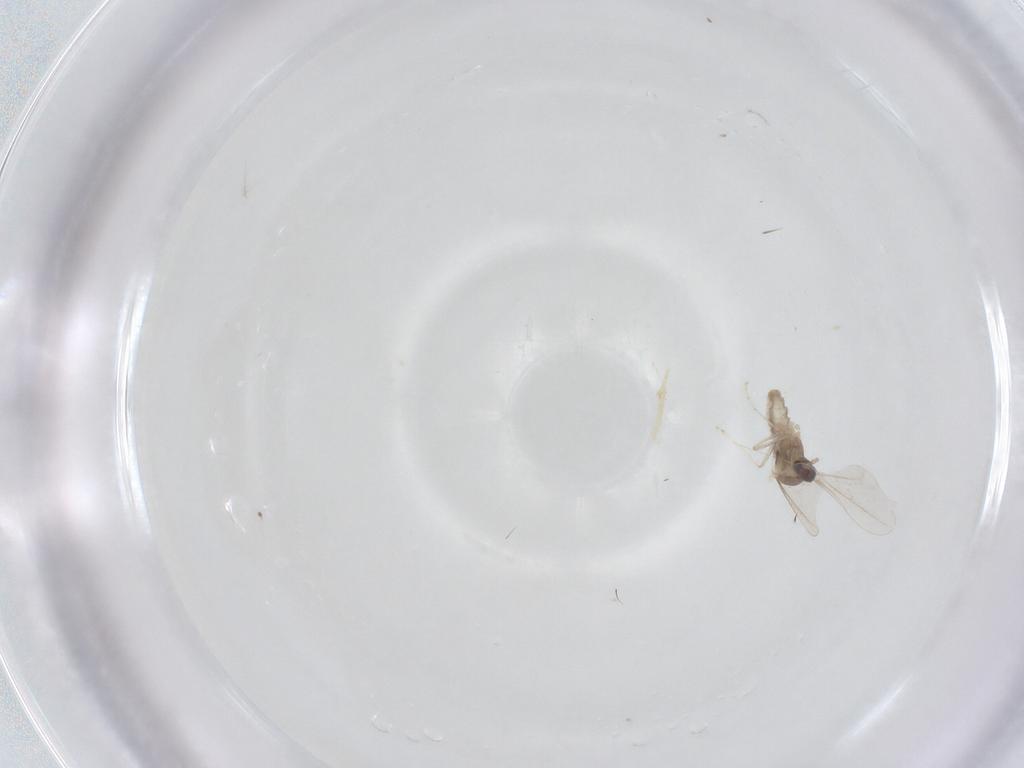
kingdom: Animalia
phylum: Arthropoda
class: Insecta
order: Diptera
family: Cecidomyiidae
